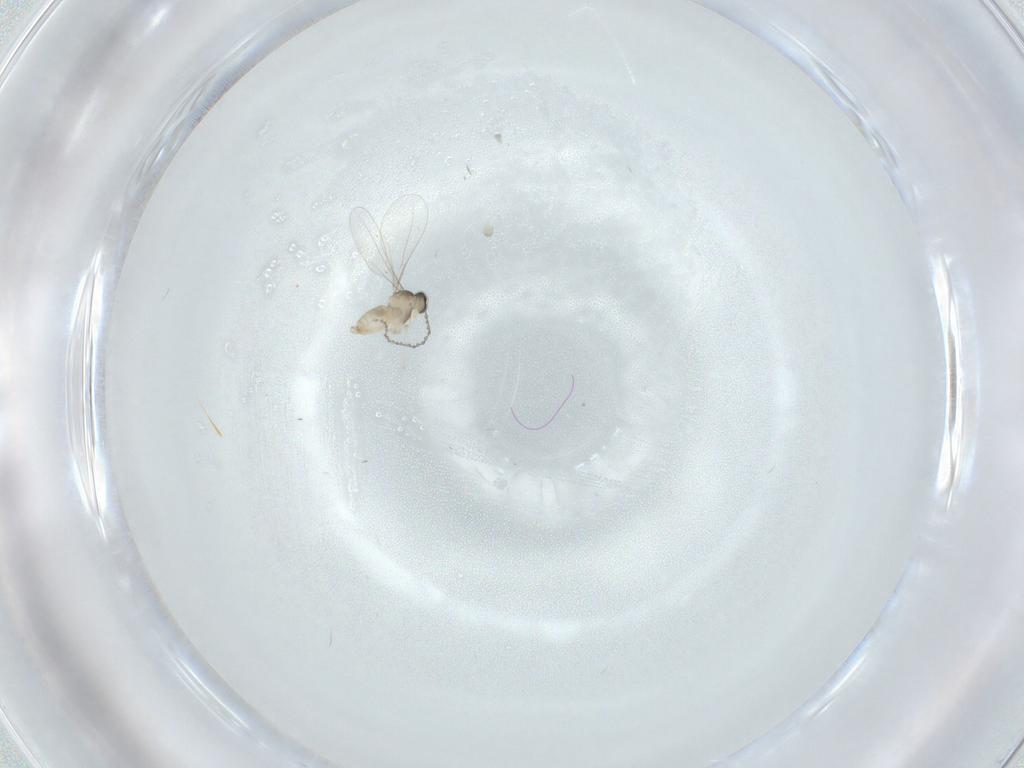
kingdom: Animalia
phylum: Arthropoda
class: Insecta
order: Diptera
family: Cecidomyiidae
